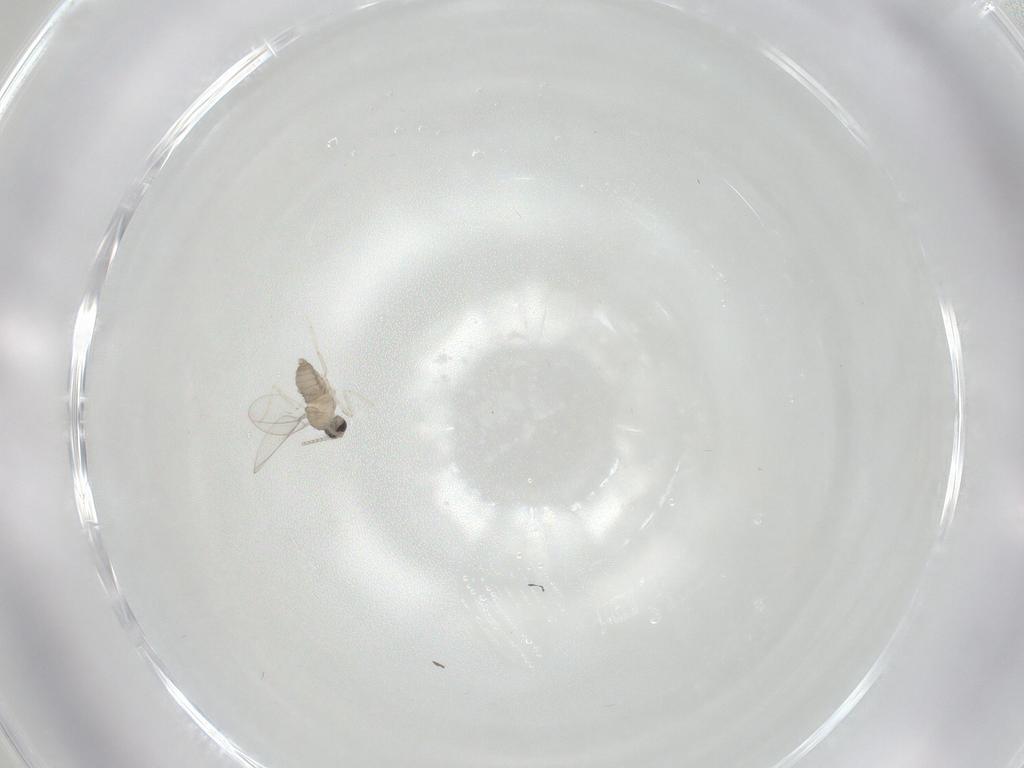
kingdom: Animalia
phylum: Arthropoda
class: Insecta
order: Diptera
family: Cecidomyiidae
